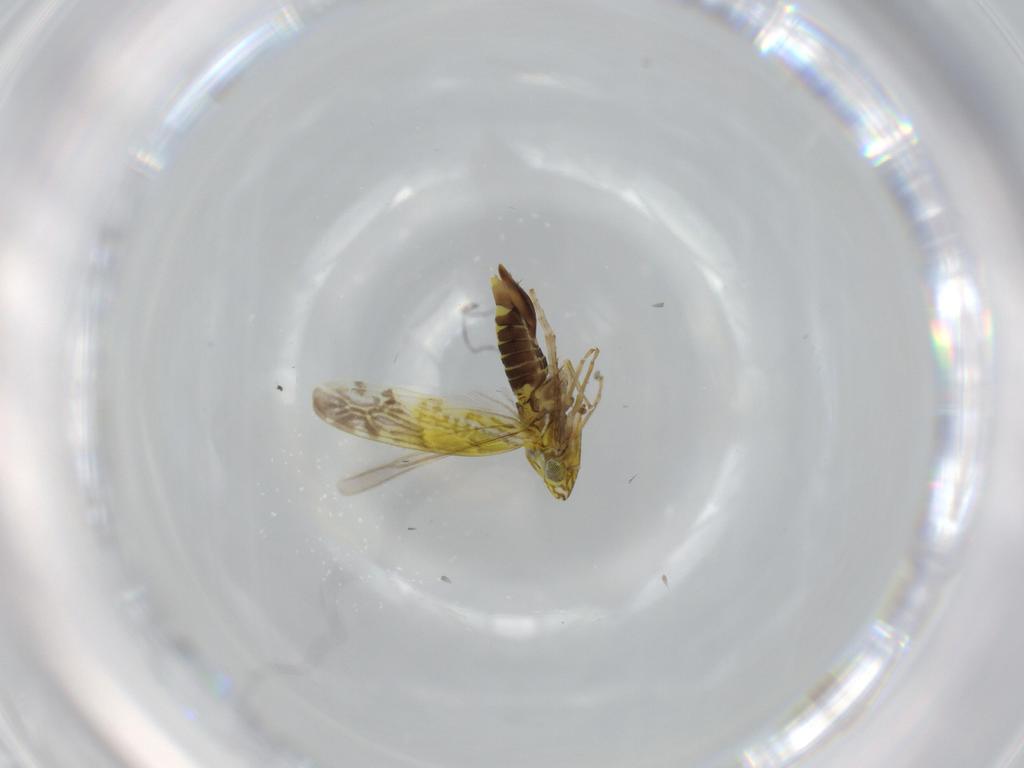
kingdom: Animalia
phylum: Arthropoda
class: Insecta
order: Hemiptera
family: Cicadellidae
